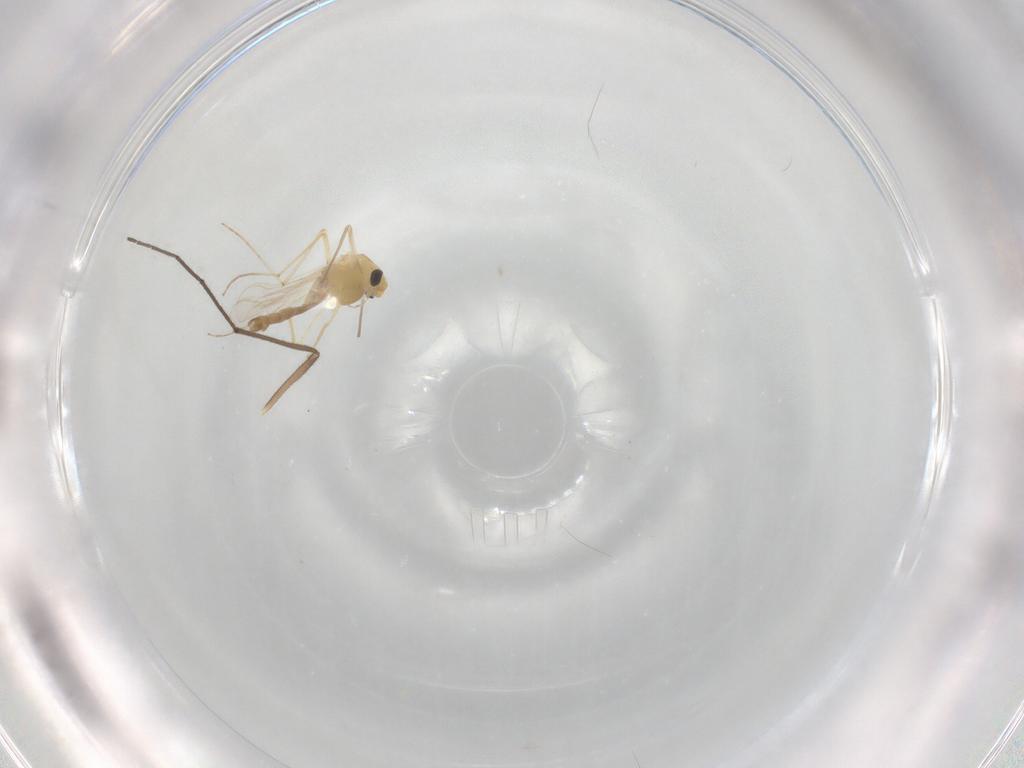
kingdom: Animalia
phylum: Arthropoda
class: Insecta
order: Diptera
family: Chironomidae
